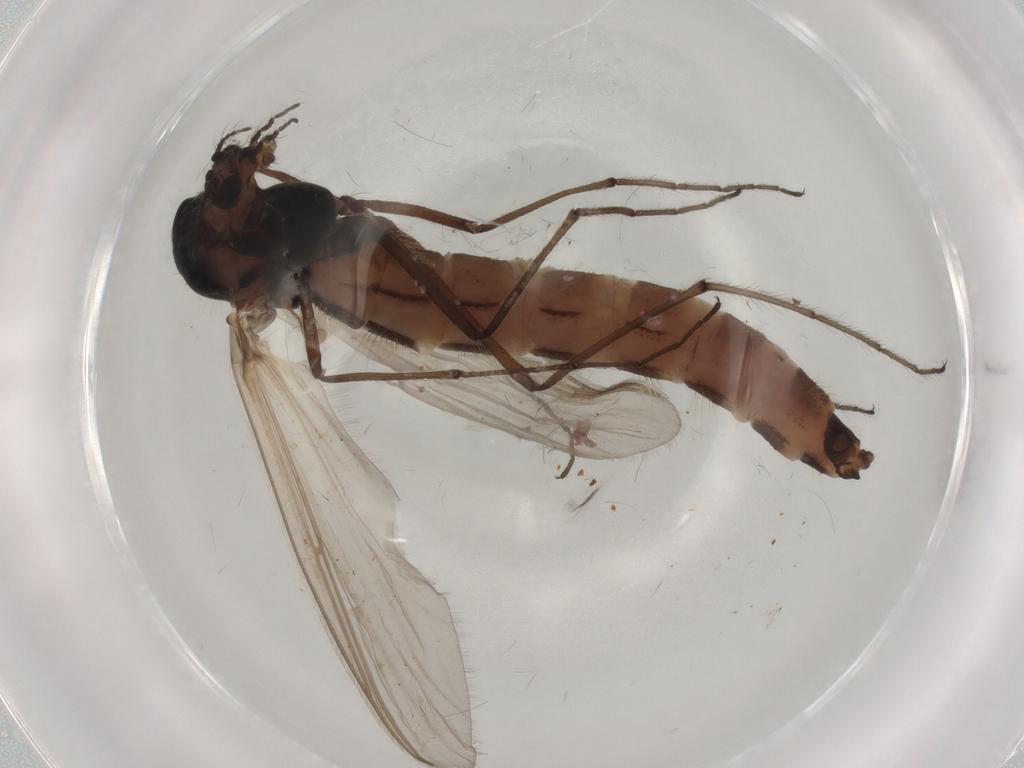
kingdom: Animalia
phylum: Arthropoda
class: Insecta
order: Diptera
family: Chironomidae
